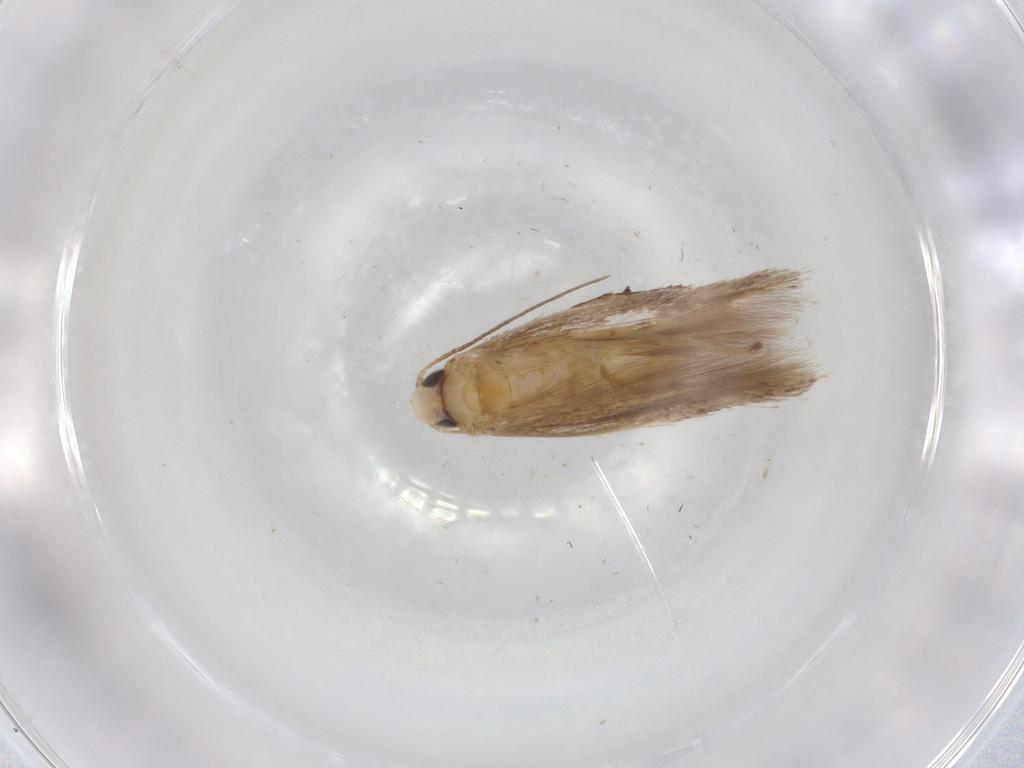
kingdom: Animalia
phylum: Arthropoda
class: Insecta
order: Lepidoptera
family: Tischeriidae
